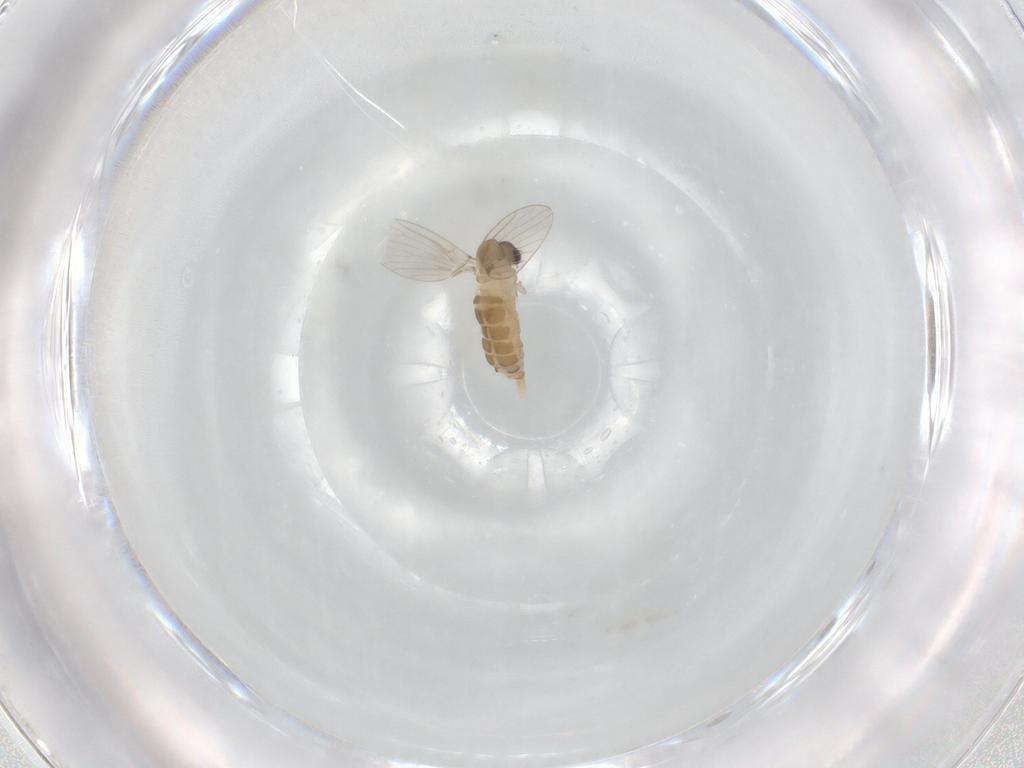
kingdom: Animalia
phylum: Arthropoda
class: Insecta
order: Diptera
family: Psychodidae
